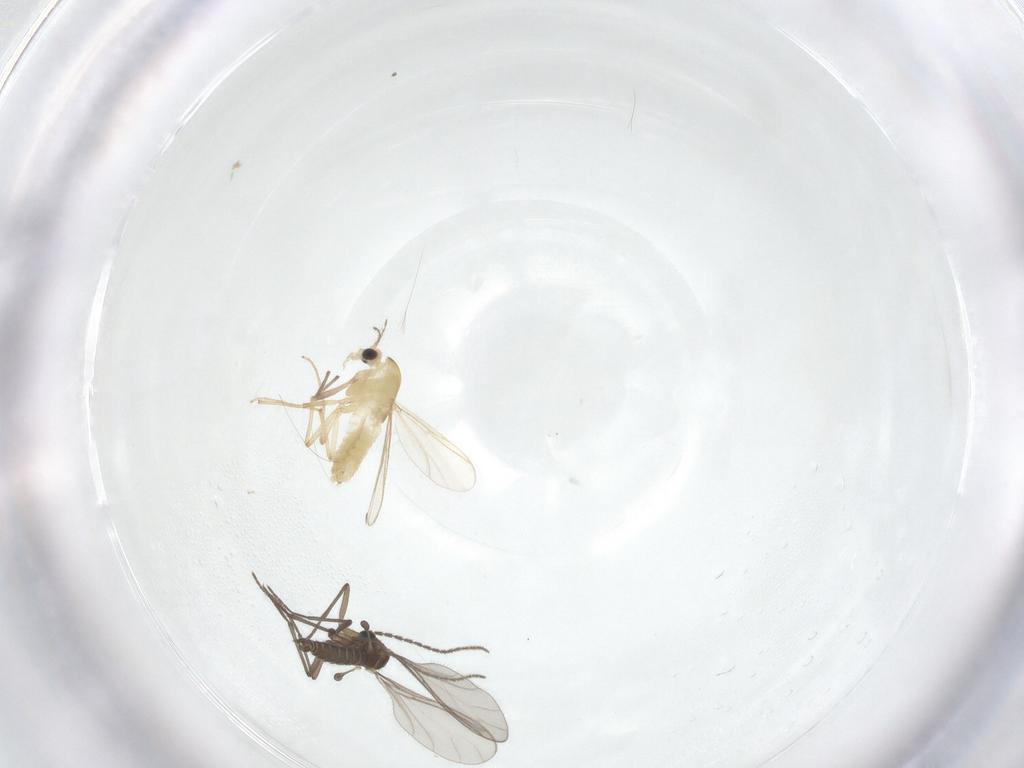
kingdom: Animalia
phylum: Arthropoda
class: Insecta
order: Diptera
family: Chironomidae
